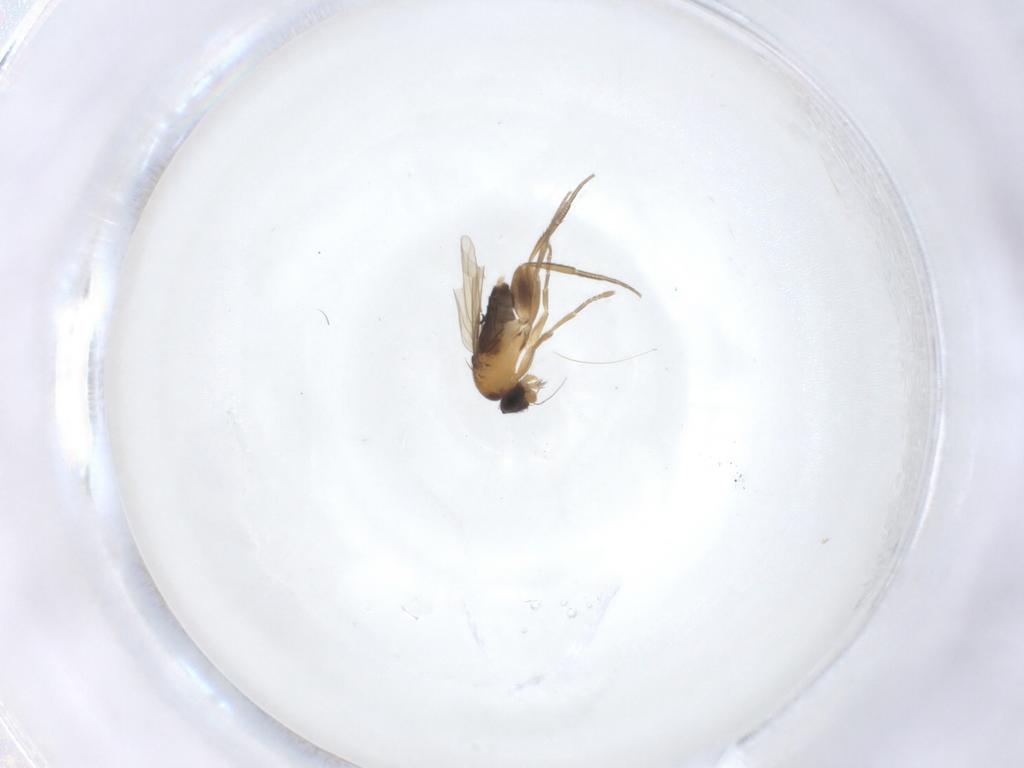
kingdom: Animalia
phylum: Arthropoda
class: Insecta
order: Diptera
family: Phoridae
